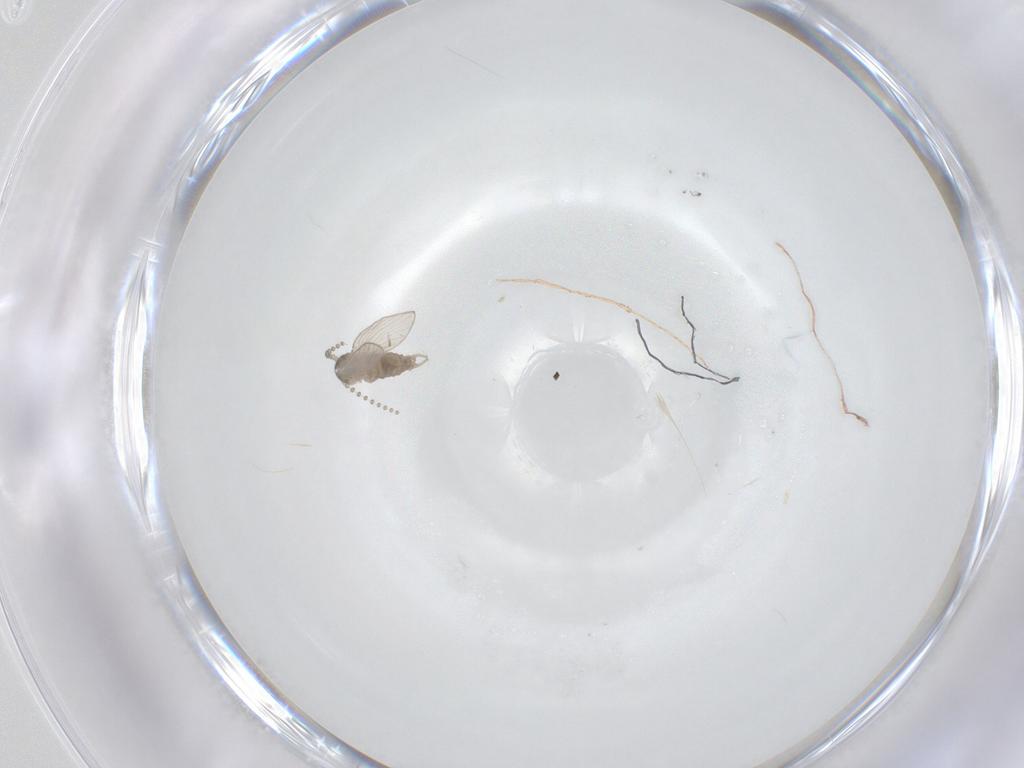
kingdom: Animalia
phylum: Arthropoda
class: Insecta
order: Diptera
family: Psychodidae
